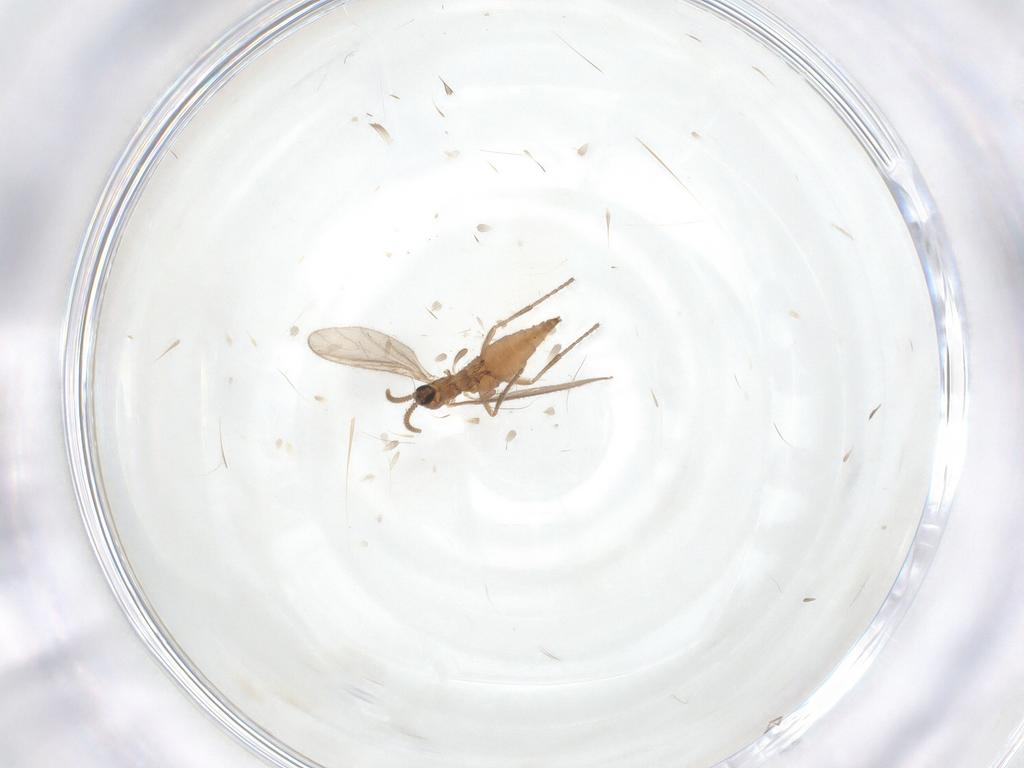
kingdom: Animalia
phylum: Arthropoda
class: Insecta
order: Diptera
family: Sciaridae
